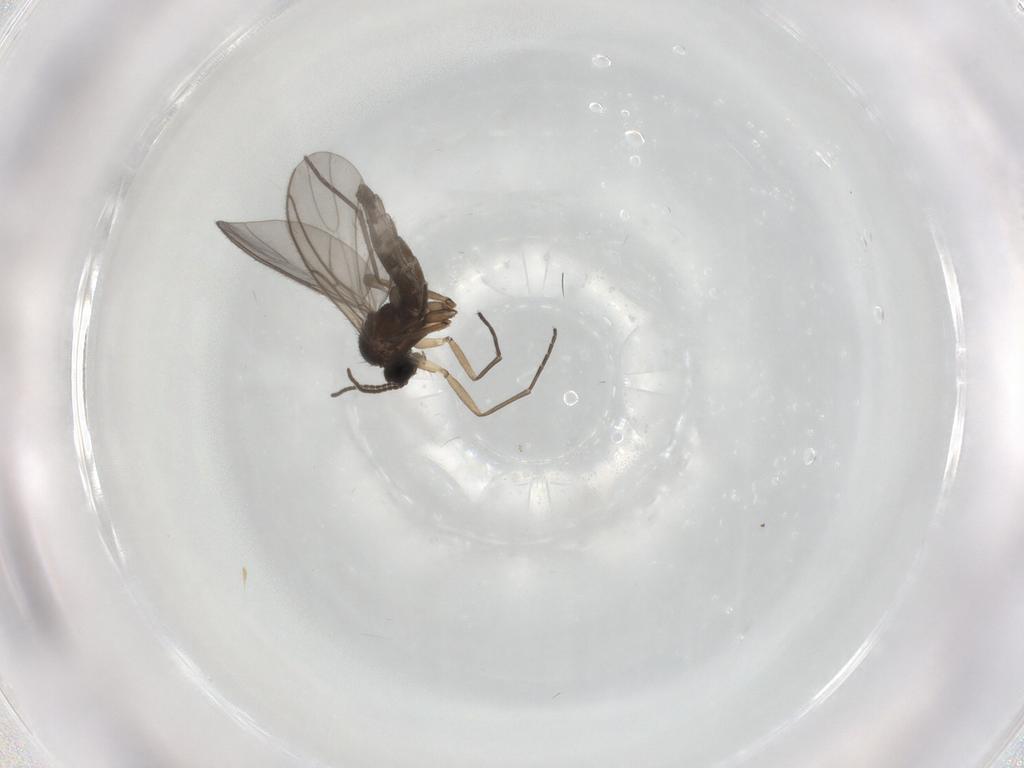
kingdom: Animalia
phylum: Arthropoda
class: Insecta
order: Diptera
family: Sciaridae
